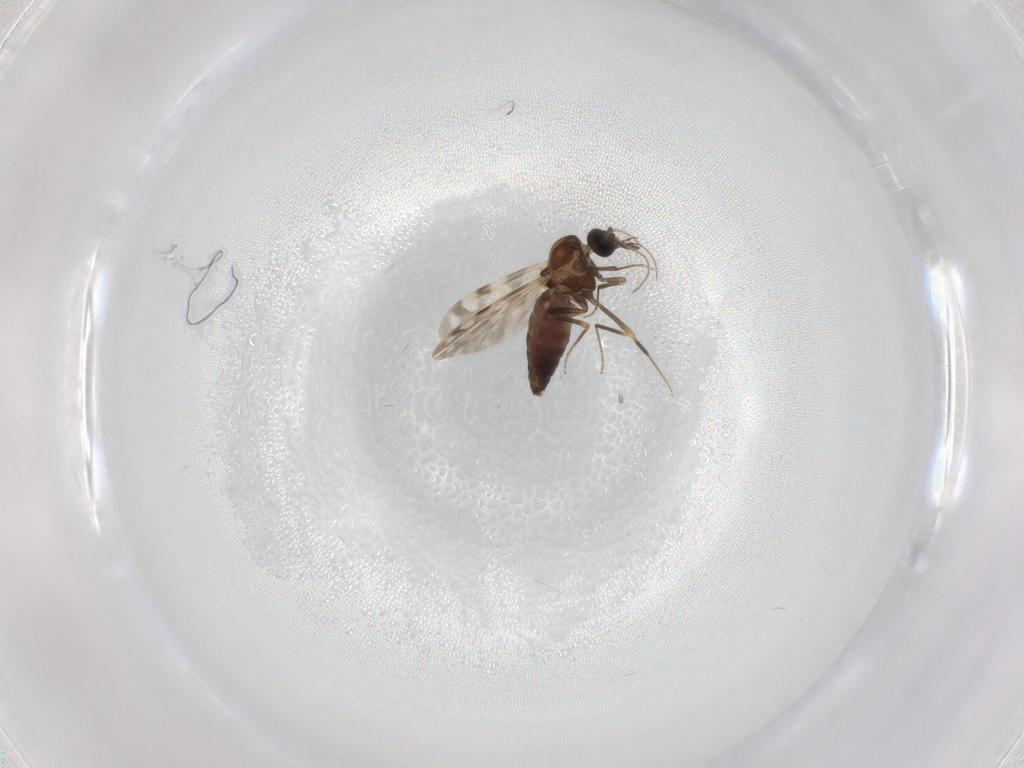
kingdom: Animalia
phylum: Arthropoda
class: Insecta
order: Diptera
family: Ceratopogonidae
